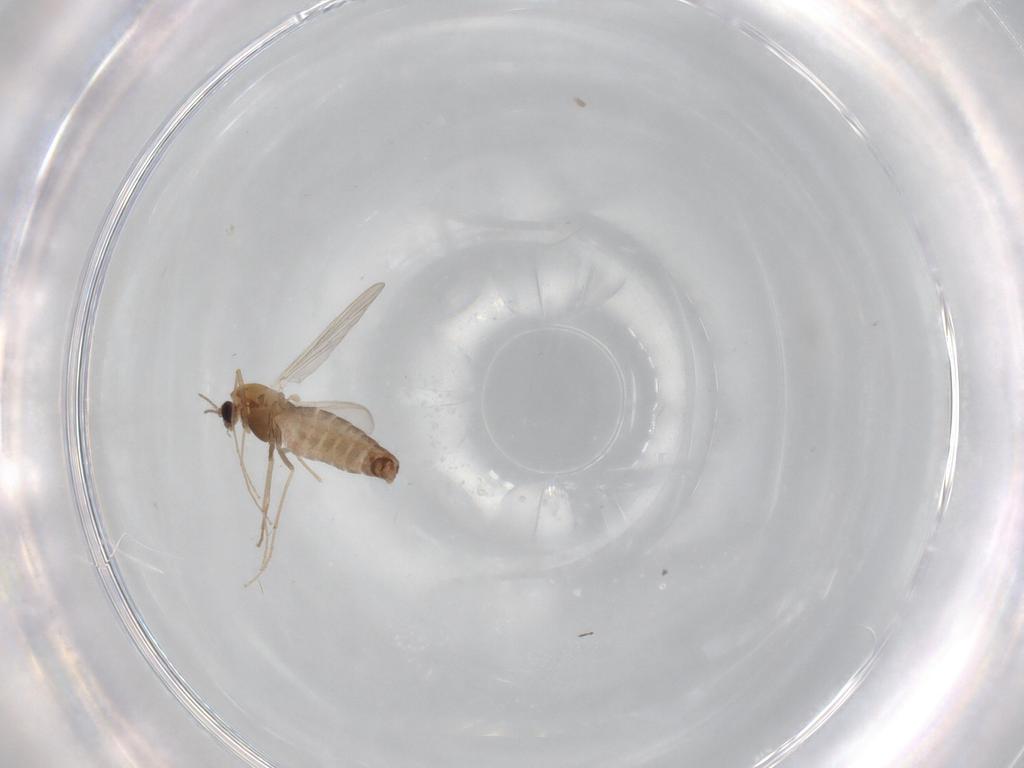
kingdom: Animalia
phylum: Arthropoda
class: Insecta
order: Diptera
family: Chironomidae
